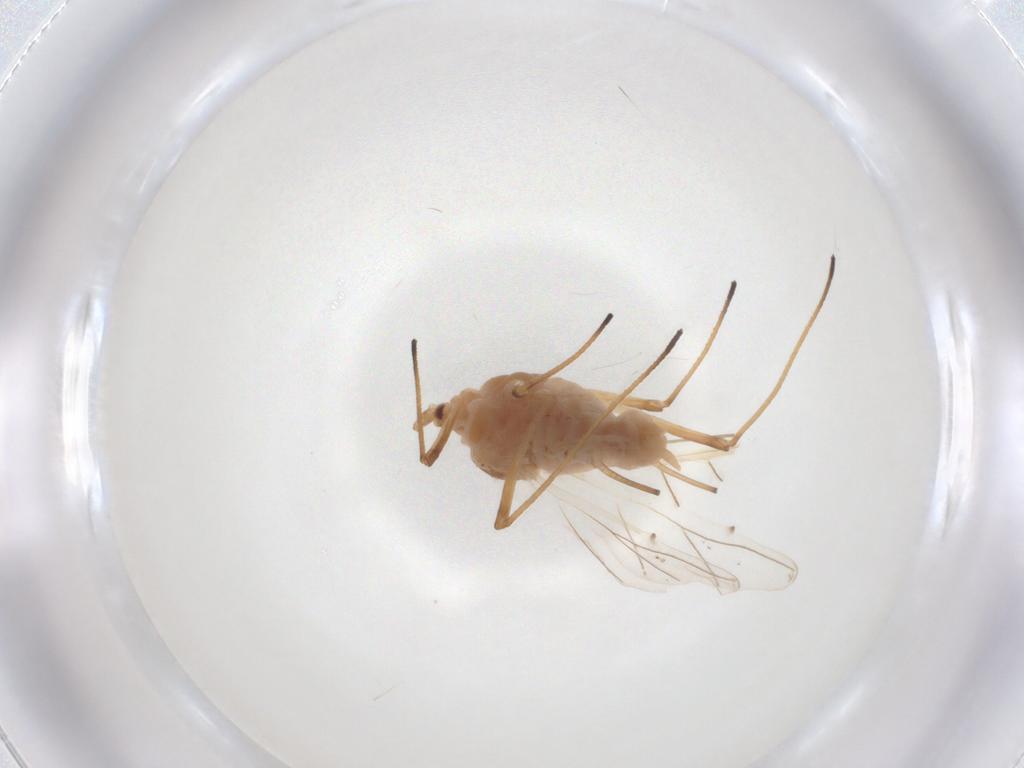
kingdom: Animalia
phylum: Arthropoda
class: Insecta
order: Hemiptera
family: Aphididae
